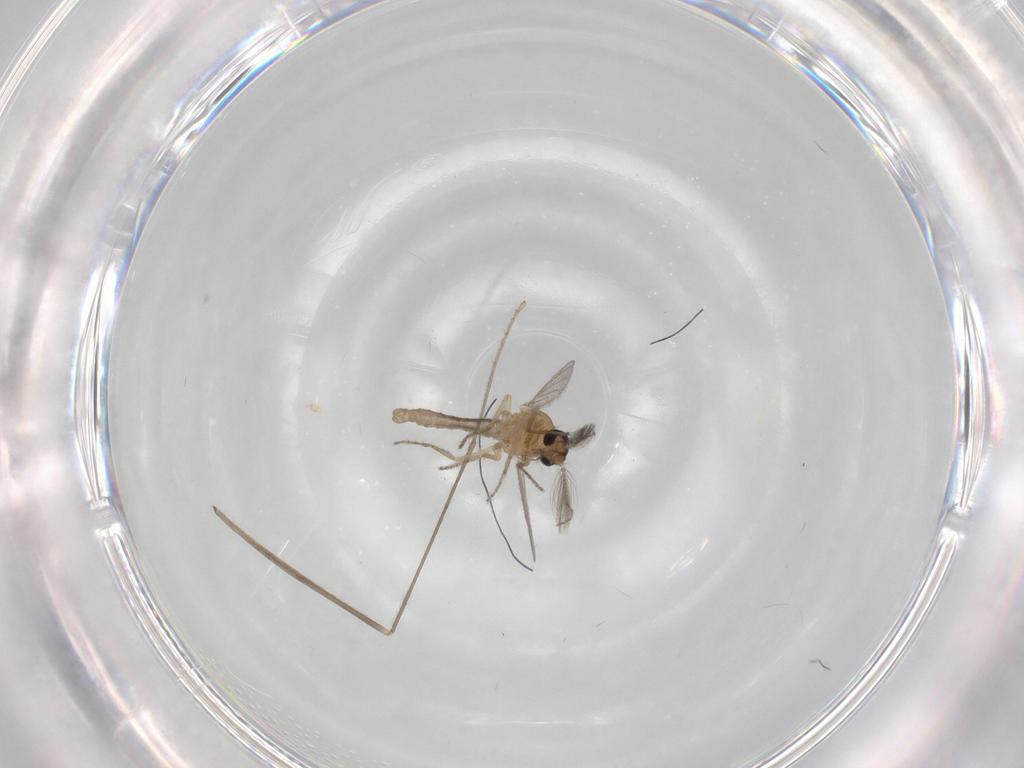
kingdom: Animalia
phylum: Arthropoda
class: Insecta
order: Diptera
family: Limoniidae
